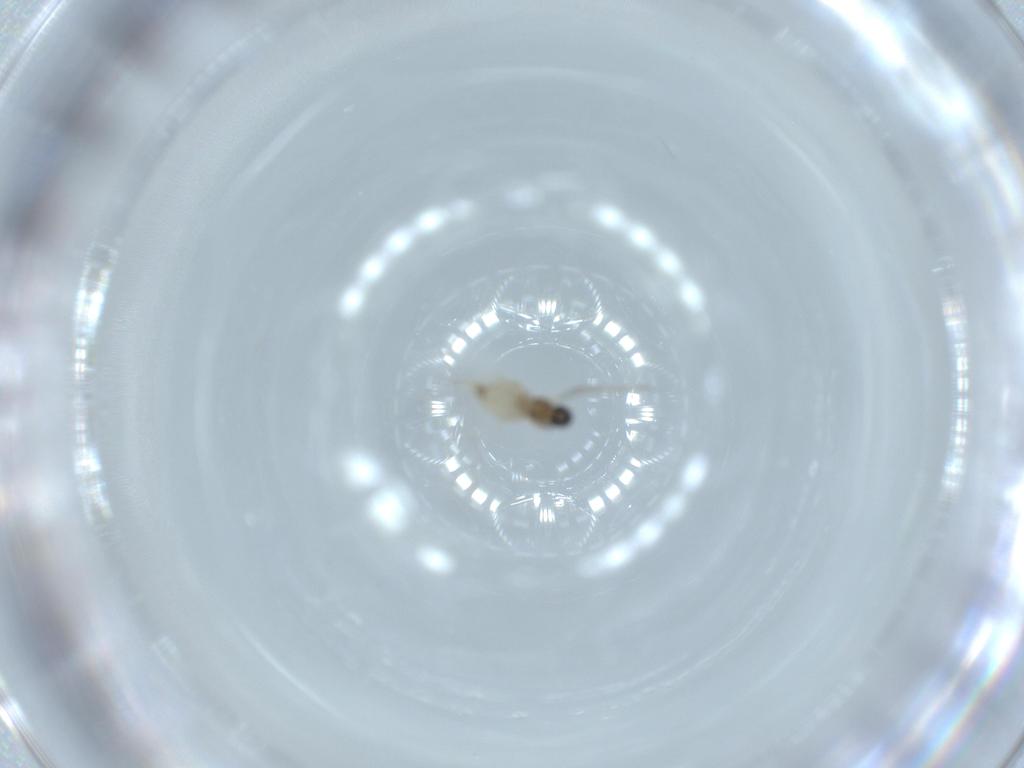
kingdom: Animalia
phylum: Arthropoda
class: Insecta
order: Diptera
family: Cecidomyiidae
